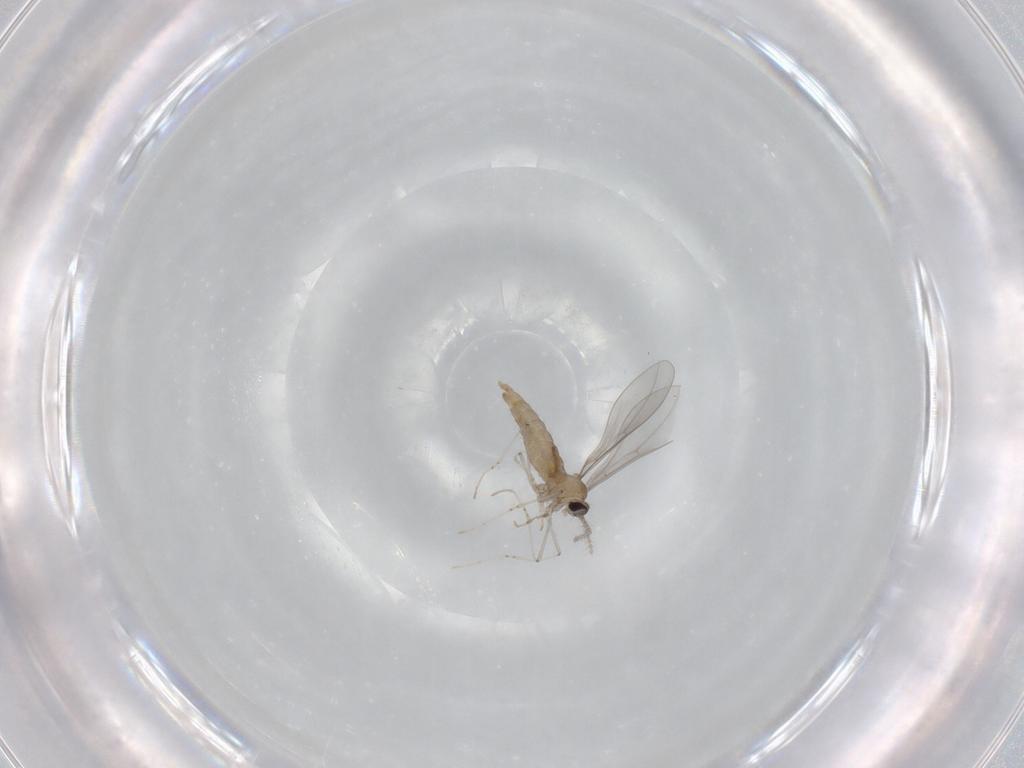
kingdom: Animalia
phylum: Arthropoda
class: Insecta
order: Diptera
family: Cecidomyiidae
